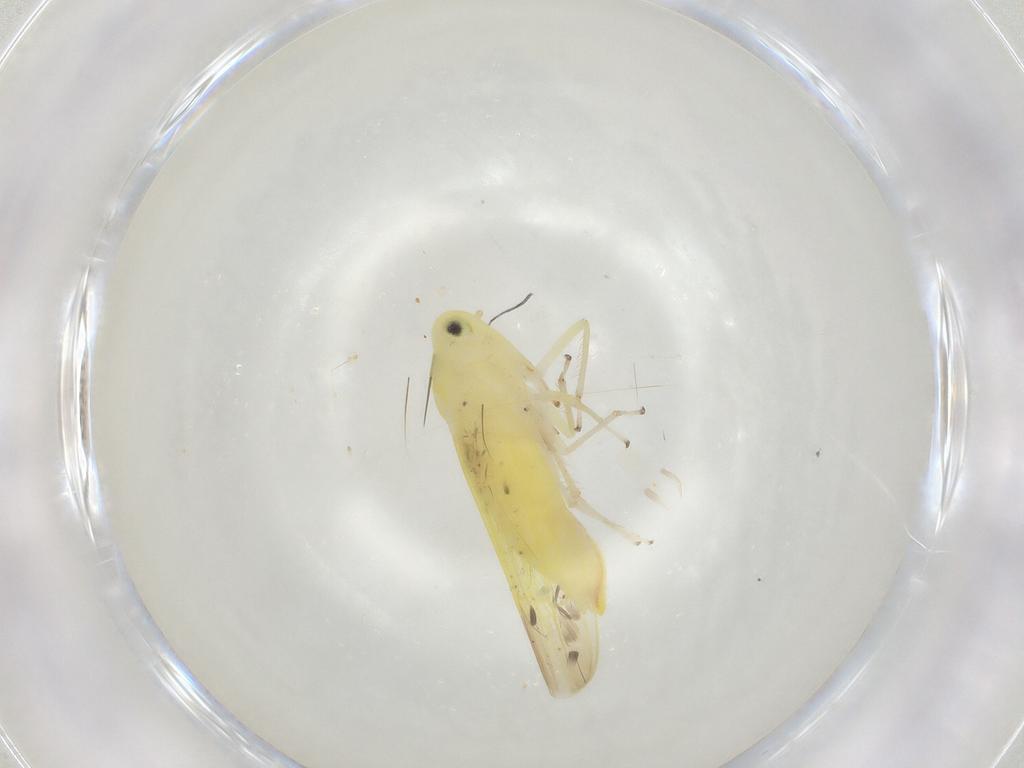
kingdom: Animalia
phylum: Arthropoda
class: Insecta
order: Hemiptera
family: Cicadellidae
